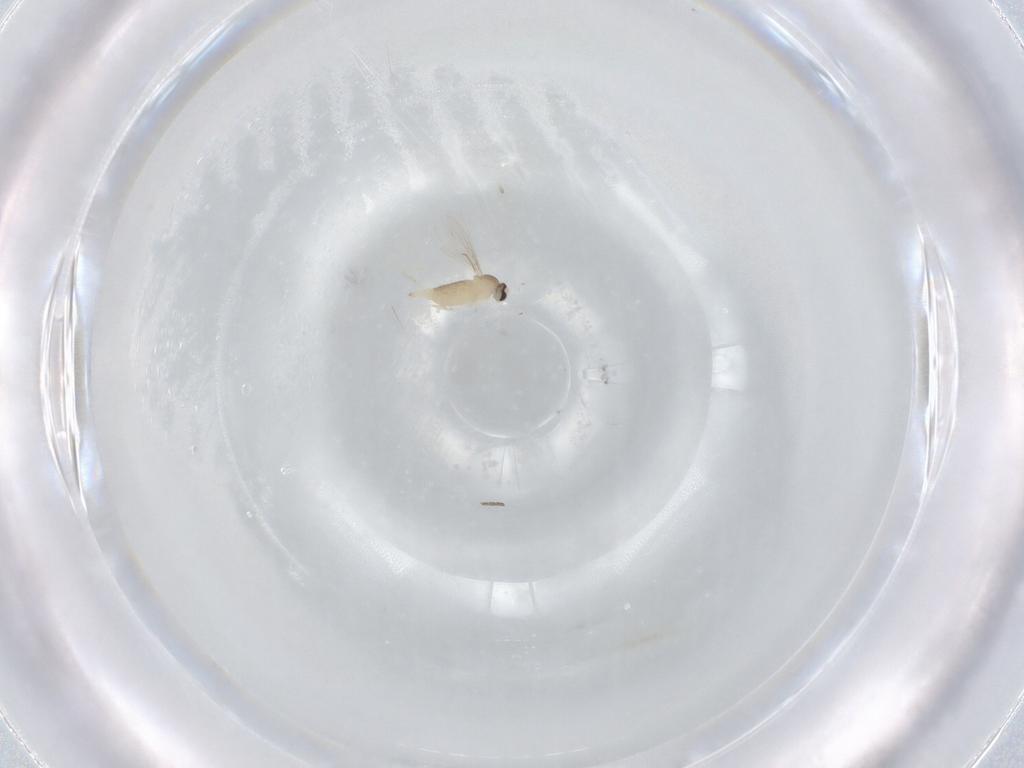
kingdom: Animalia
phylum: Arthropoda
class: Insecta
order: Diptera
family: Cecidomyiidae
